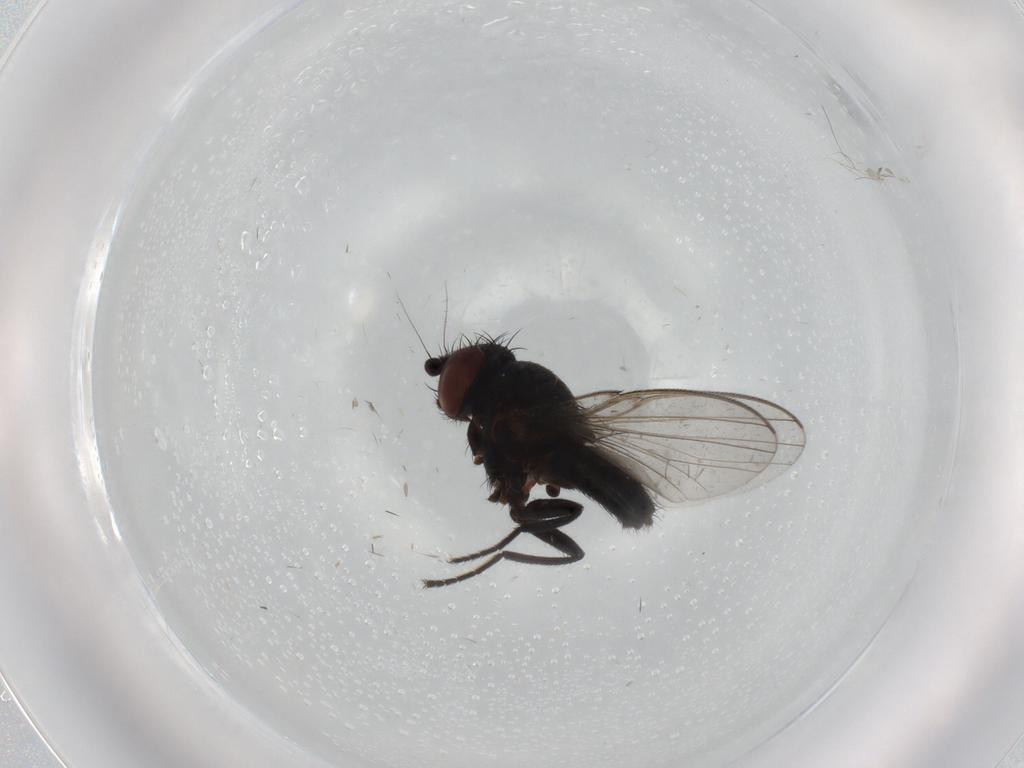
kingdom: Animalia
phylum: Arthropoda
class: Insecta
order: Diptera
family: Milichiidae
